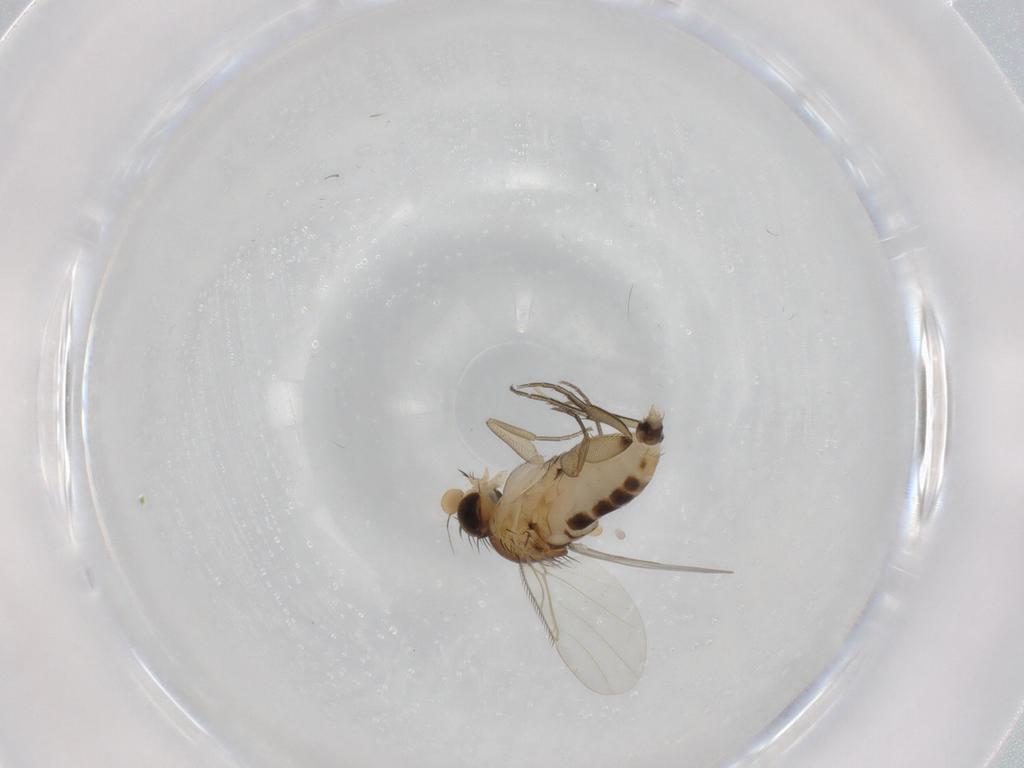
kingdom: Animalia
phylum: Arthropoda
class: Insecta
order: Diptera
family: Phoridae
